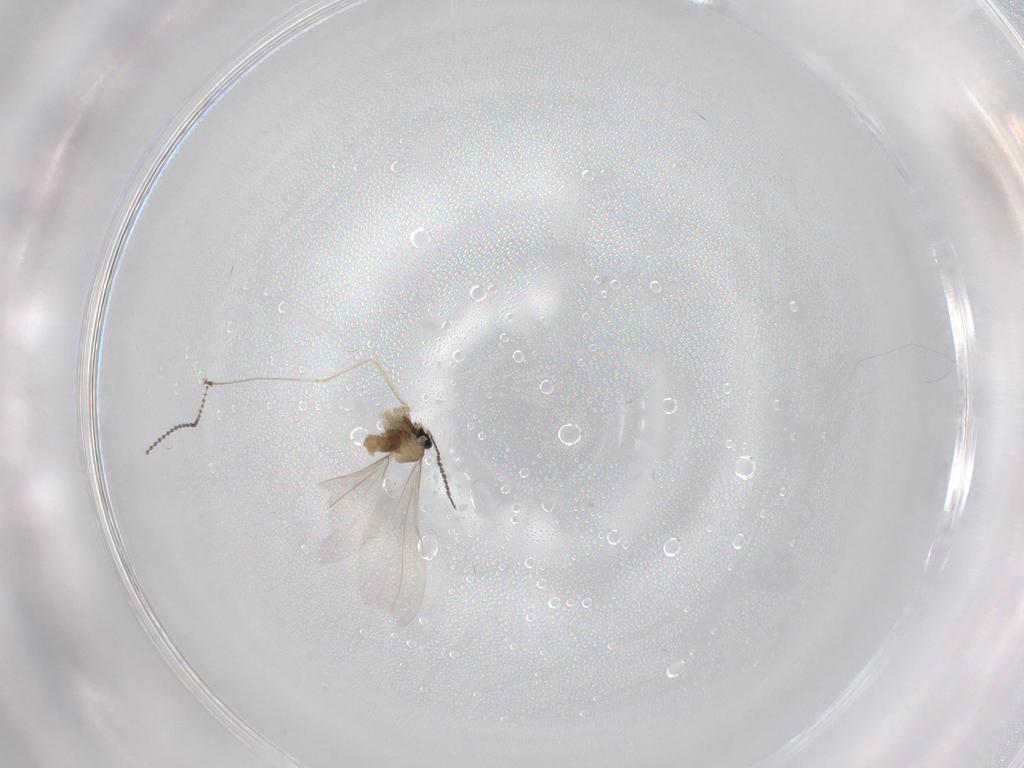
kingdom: Animalia
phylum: Arthropoda
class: Insecta
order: Diptera
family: Cecidomyiidae
